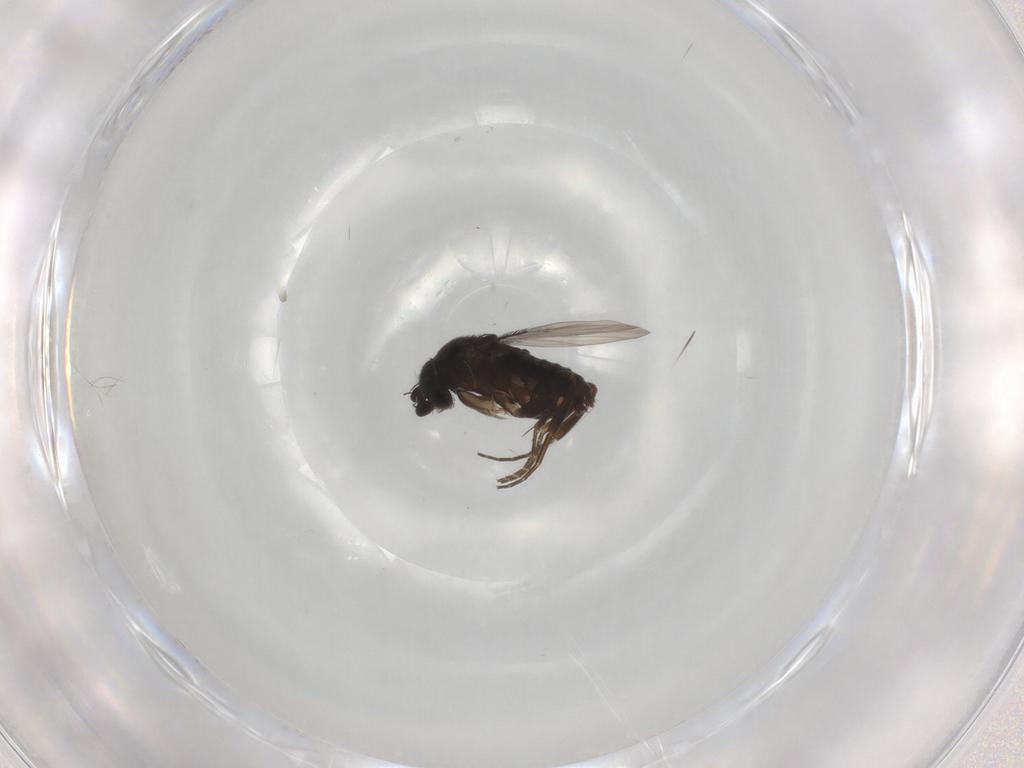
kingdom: Animalia
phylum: Arthropoda
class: Insecta
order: Diptera
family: Phoridae
